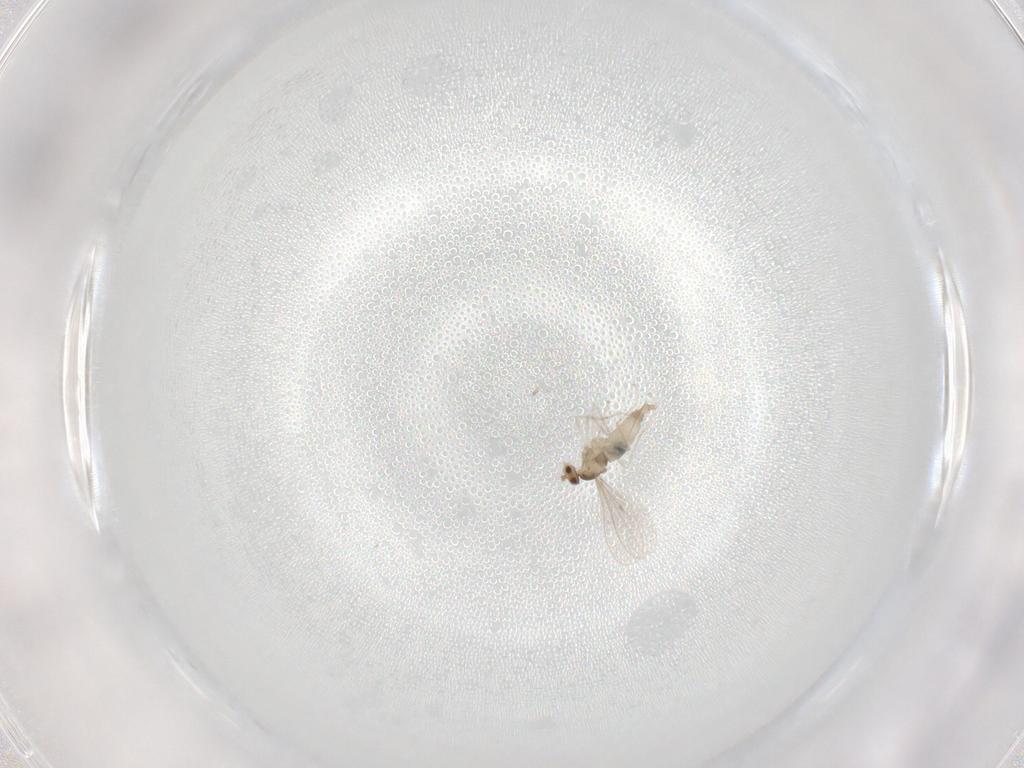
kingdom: Animalia
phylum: Arthropoda
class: Insecta
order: Diptera
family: Cecidomyiidae
